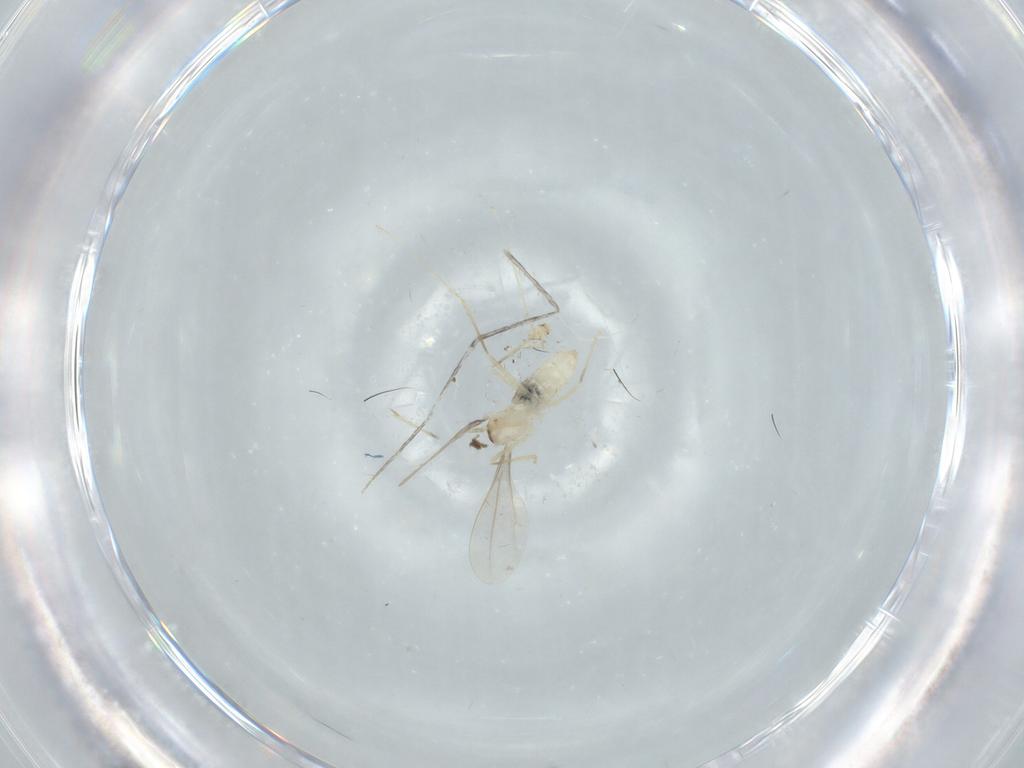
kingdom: Animalia
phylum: Arthropoda
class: Insecta
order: Diptera
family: Cecidomyiidae
